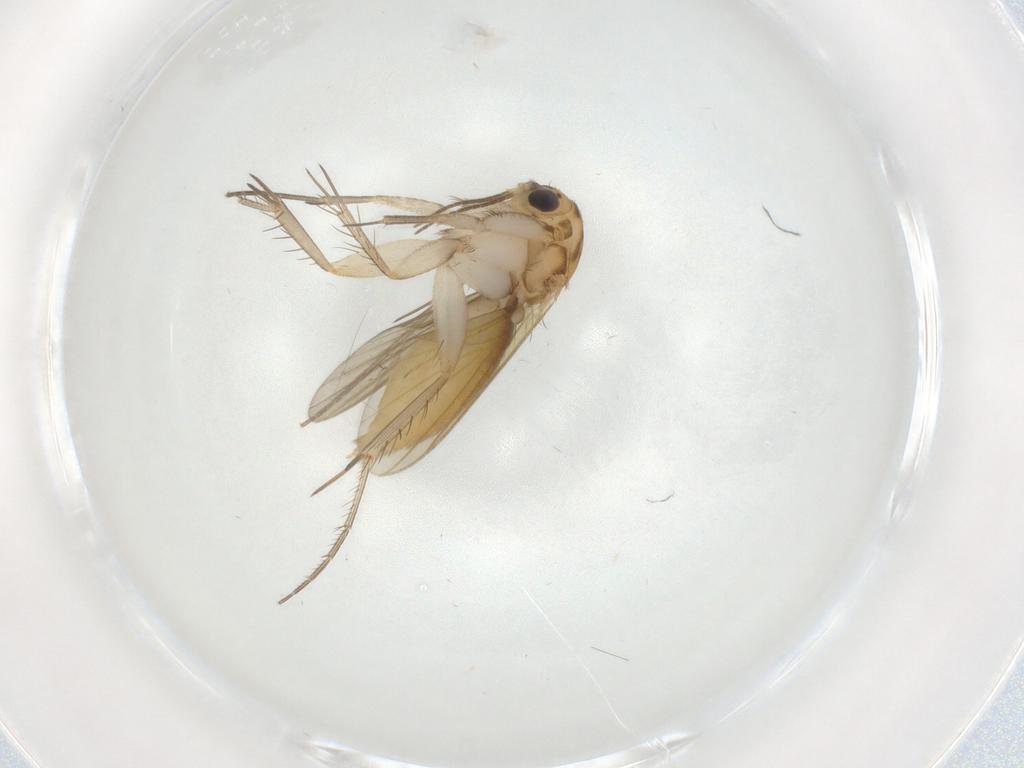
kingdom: Animalia
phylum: Arthropoda
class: Insecta
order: Diptera
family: Mycetophilidae
